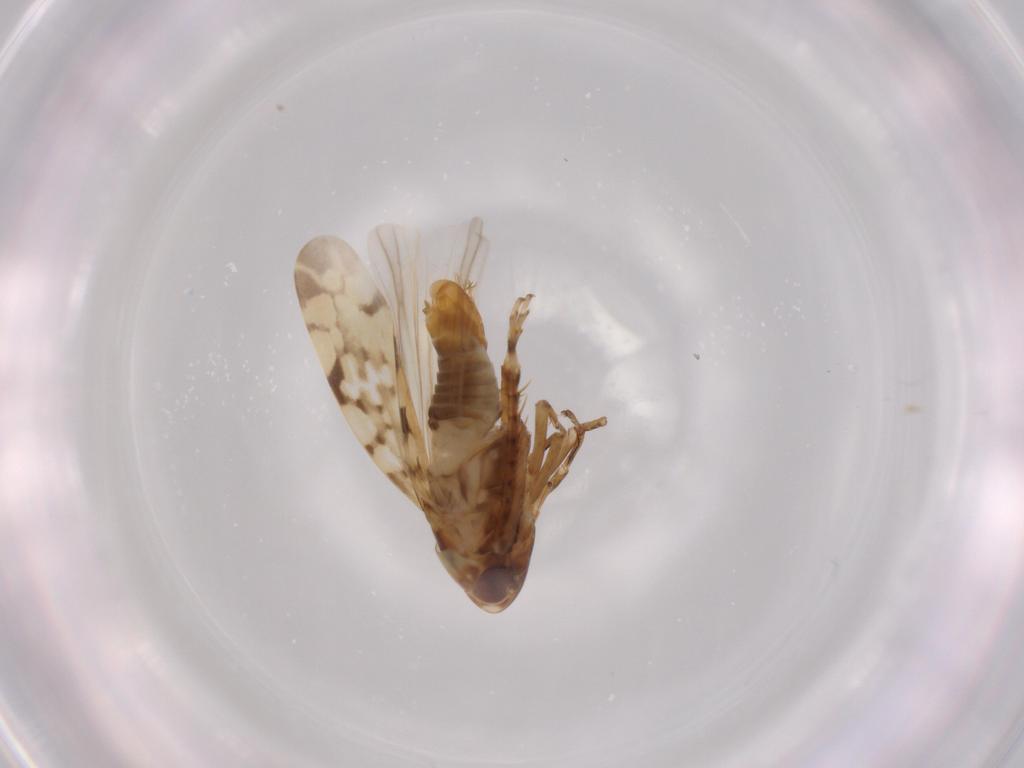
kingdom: Animalia
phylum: Arthropoda
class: Insecta
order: Hemiptera
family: Cicadellidae
